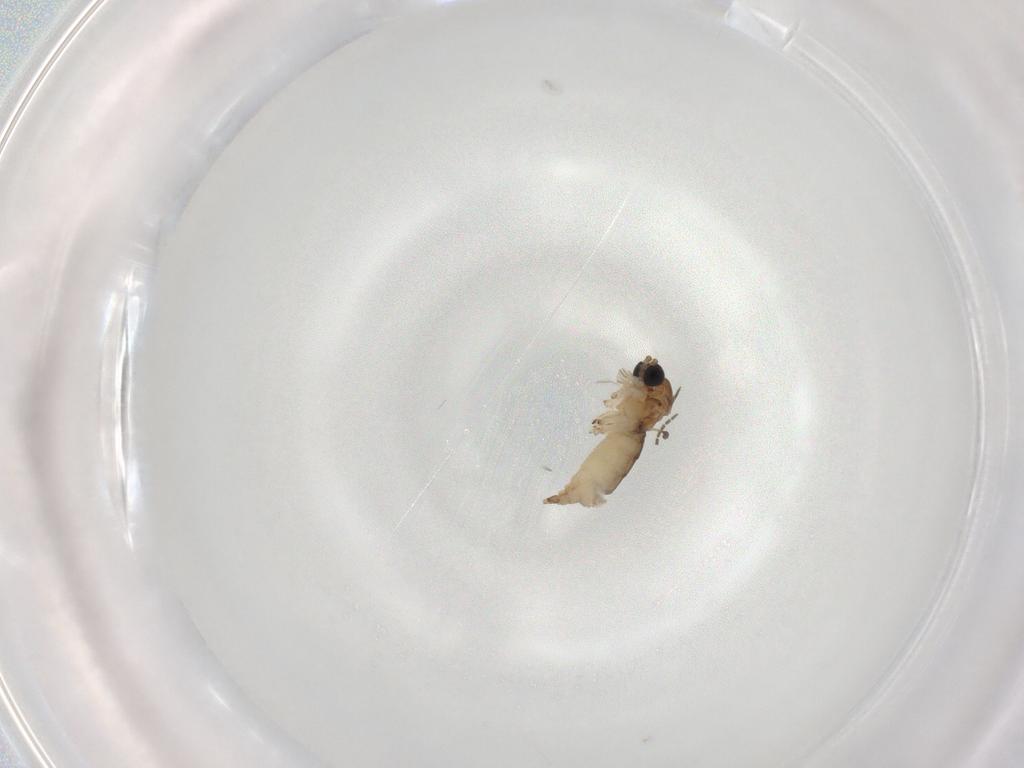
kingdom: Animalia
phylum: Arthropoda
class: Insecta
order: Diptera
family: Sciaridae
